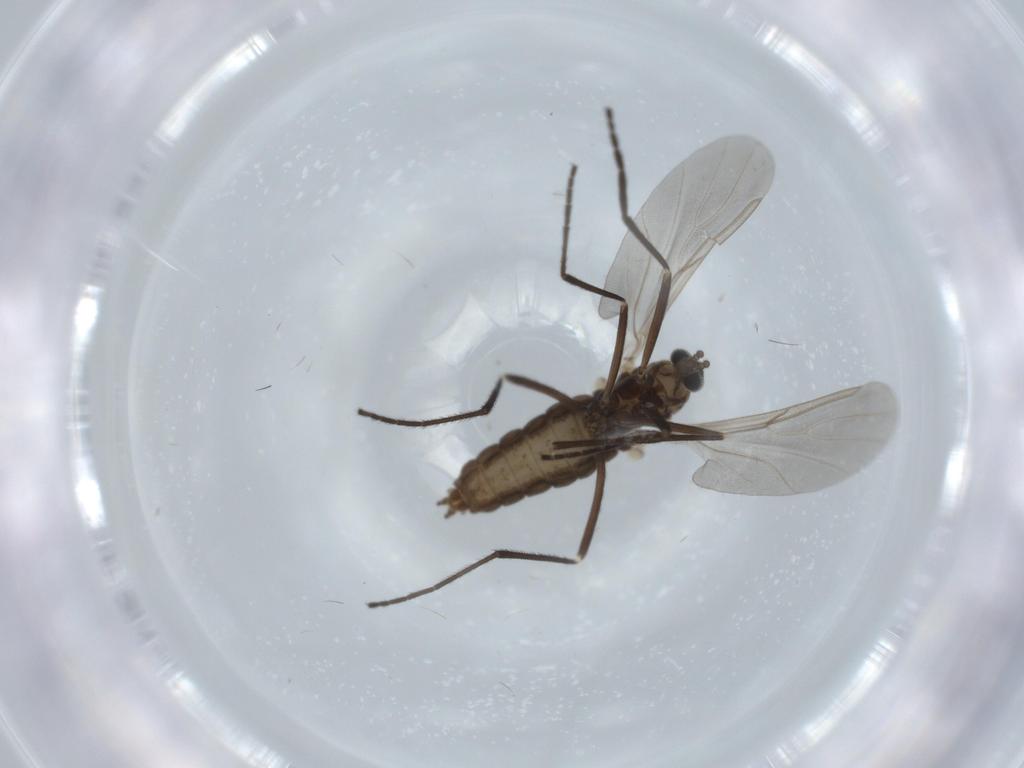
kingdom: Animalia
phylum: Arthropoda
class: Insecta
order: Diptera
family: Cecidomyiidae
